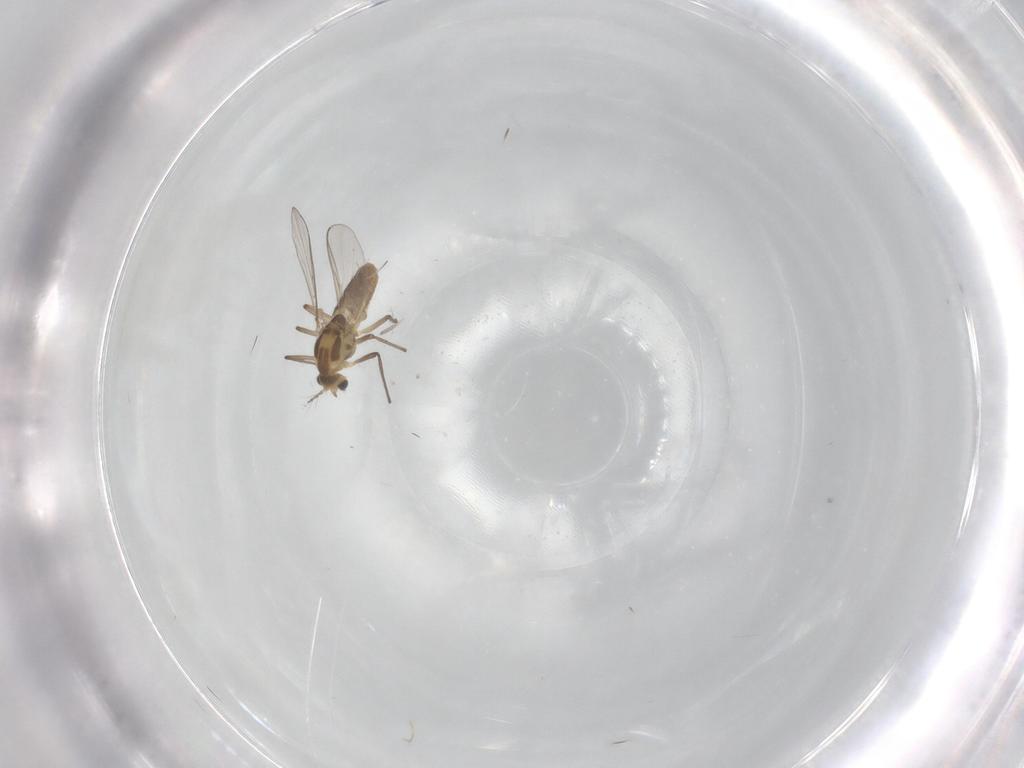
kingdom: Animalia
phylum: Arthropoda
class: Insecta
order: Diptera
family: Chironomidae
